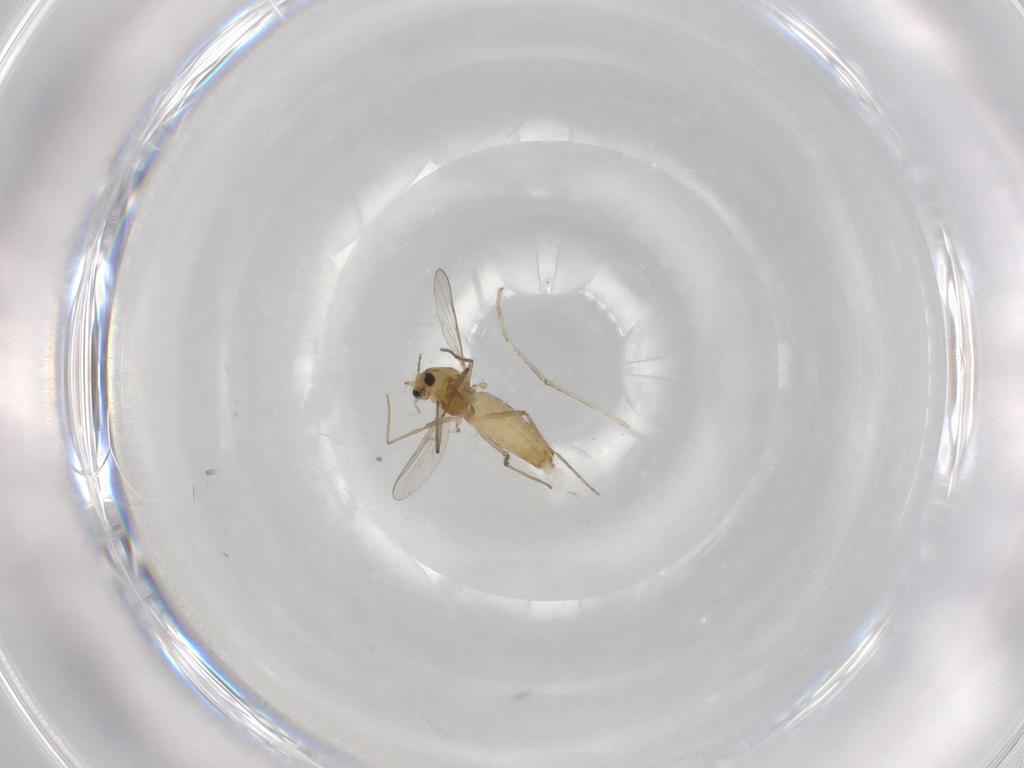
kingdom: Animalia
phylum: Arthropoda
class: Insecta
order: Diptera
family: Chironomidae
